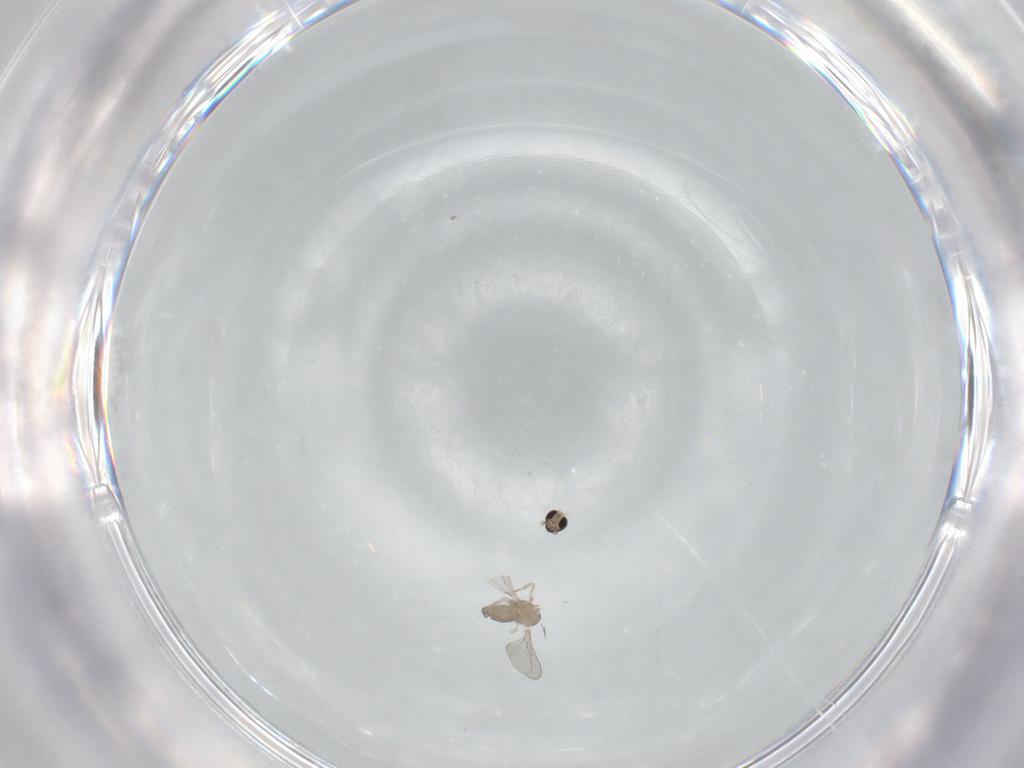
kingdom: Animalia
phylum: Arthropoda
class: Insecta
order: Diptera
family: Cecidomyiidae
